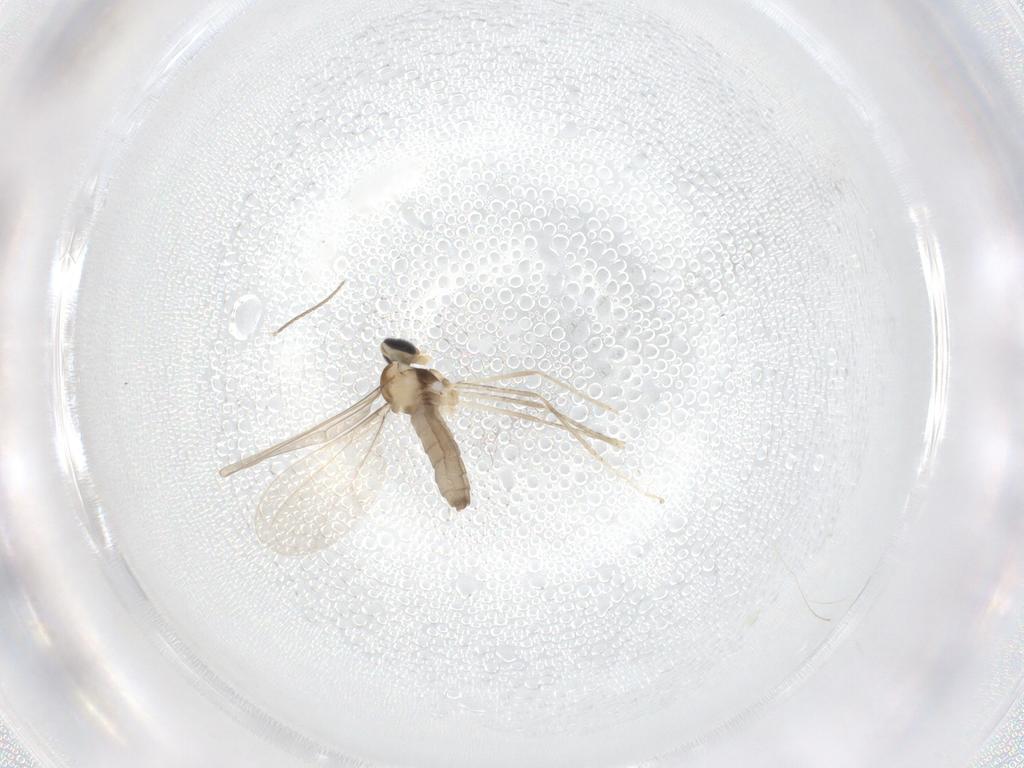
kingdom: Animalia
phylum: Arthropoda
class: Insecta
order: Diptera
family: Cecidomyiidae
